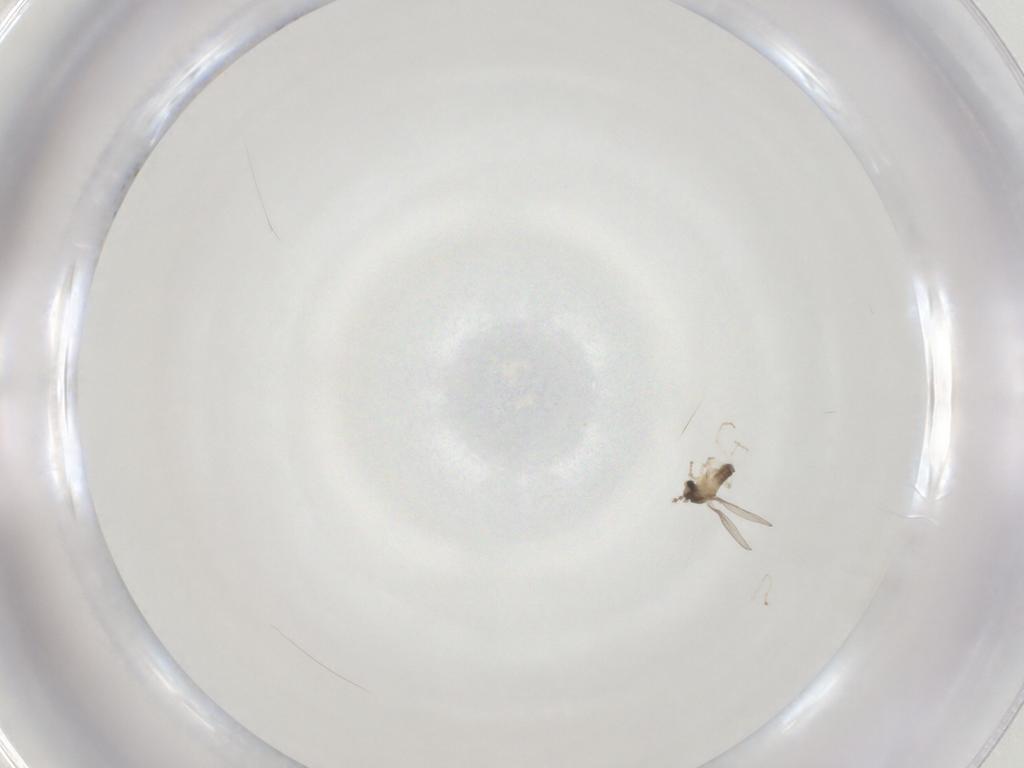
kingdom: Animalia
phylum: Arthropoda
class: Insecta
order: Diptera
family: Cecidomyiidae
